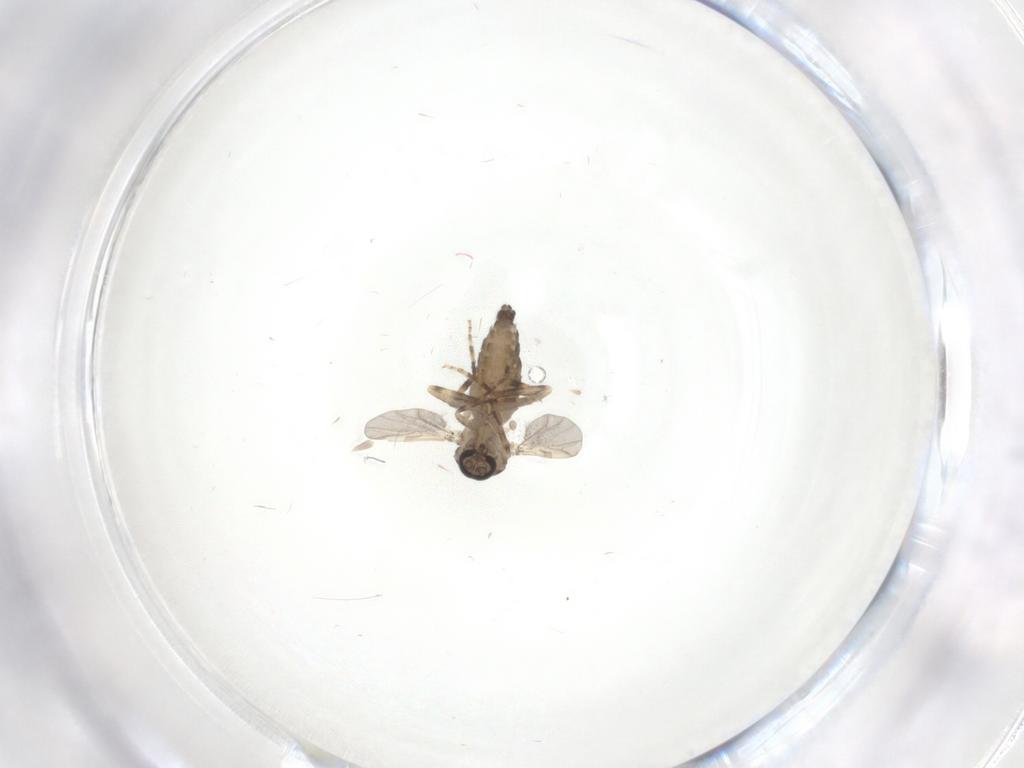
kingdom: Animalia
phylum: Arthropoda
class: Insecta
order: Diptera
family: Ceratopogonidae
